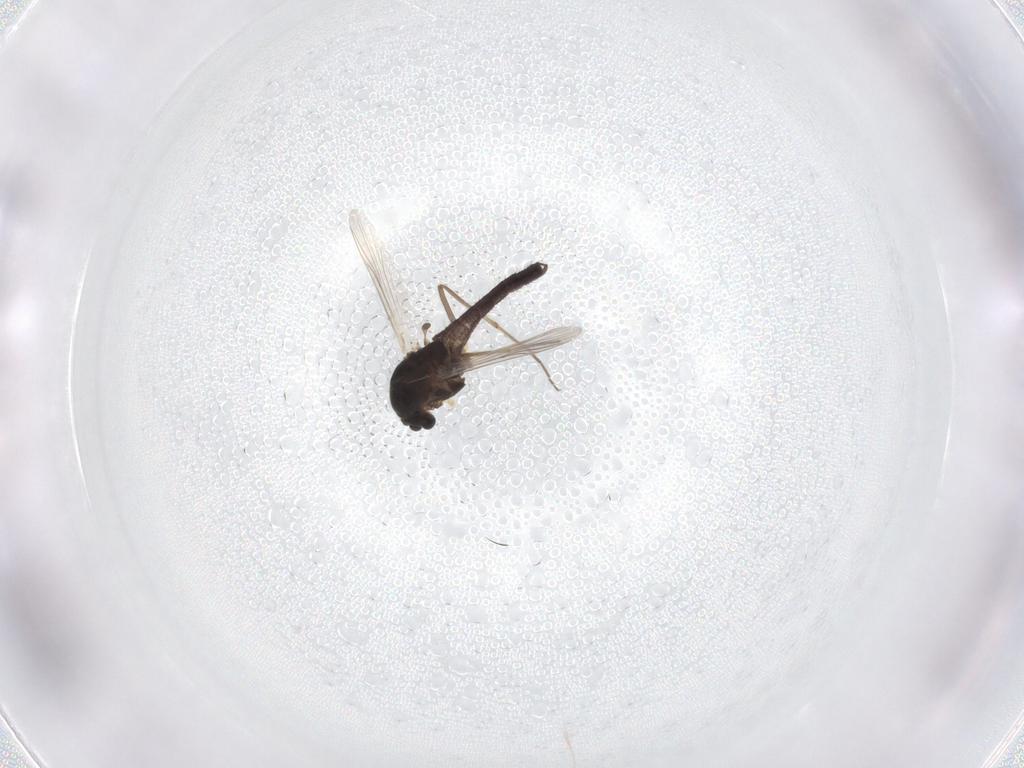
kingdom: Animalia
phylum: Arthropoda
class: Insecta
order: Diptera
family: Chironomidae
